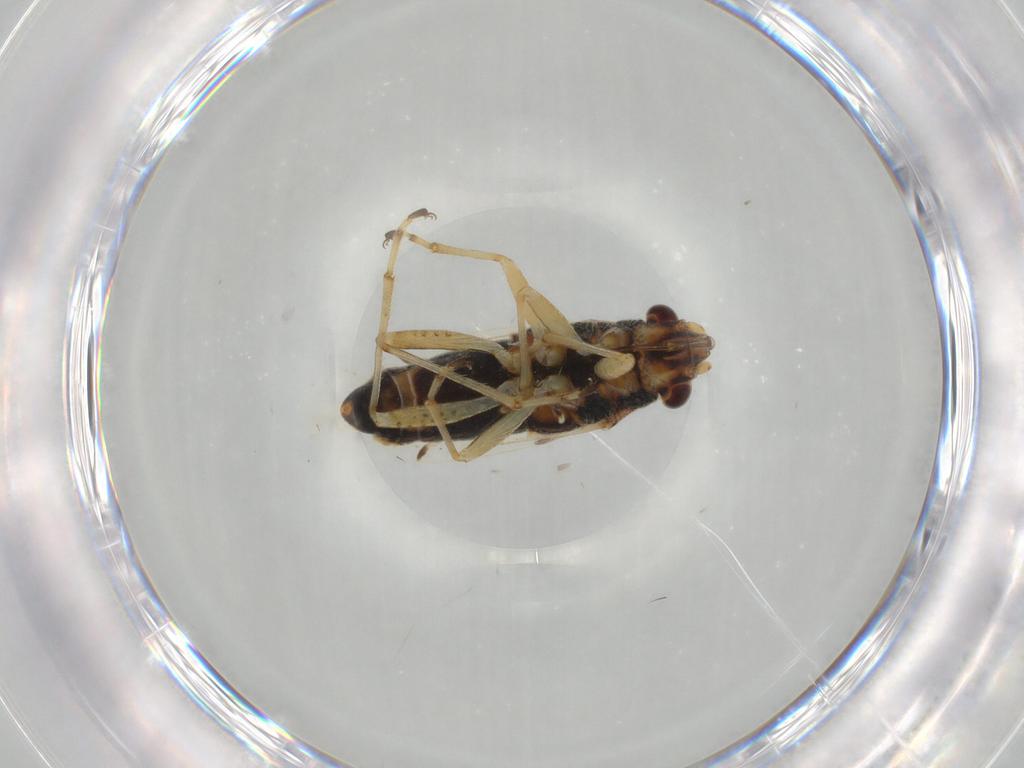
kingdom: Animalia
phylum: Arthropoda
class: Insecta
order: Hemiptera
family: Lygaeidae
